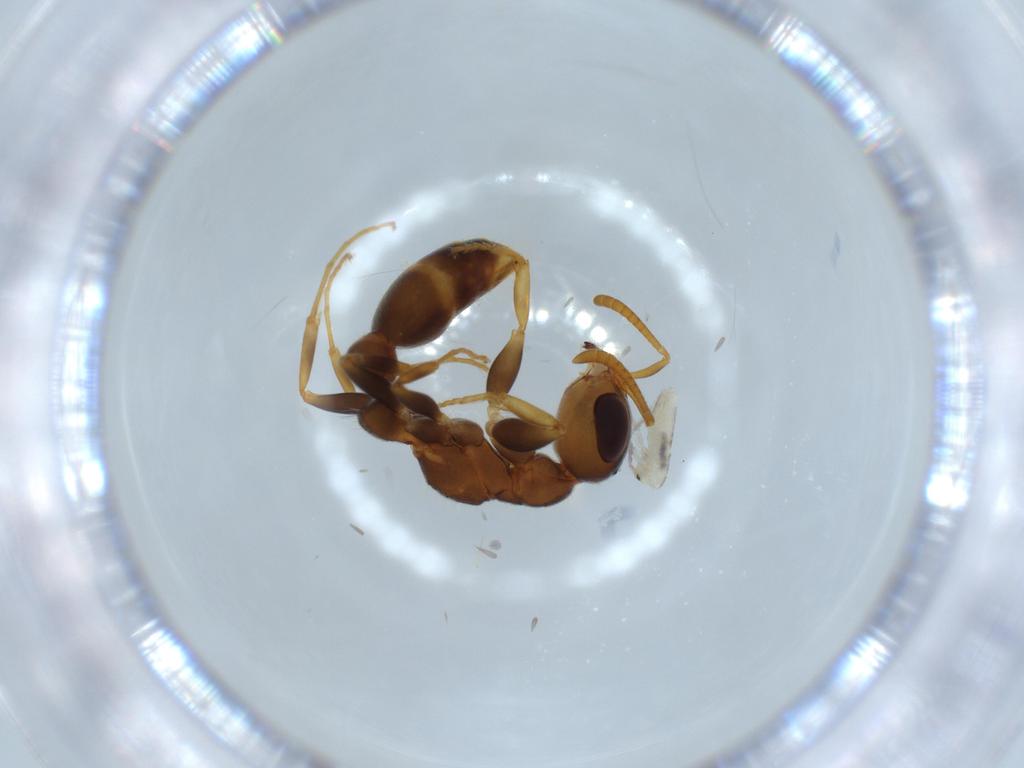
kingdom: Animalia
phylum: Arthropoda
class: Insecta
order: Hymenoptera
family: Formicidae
